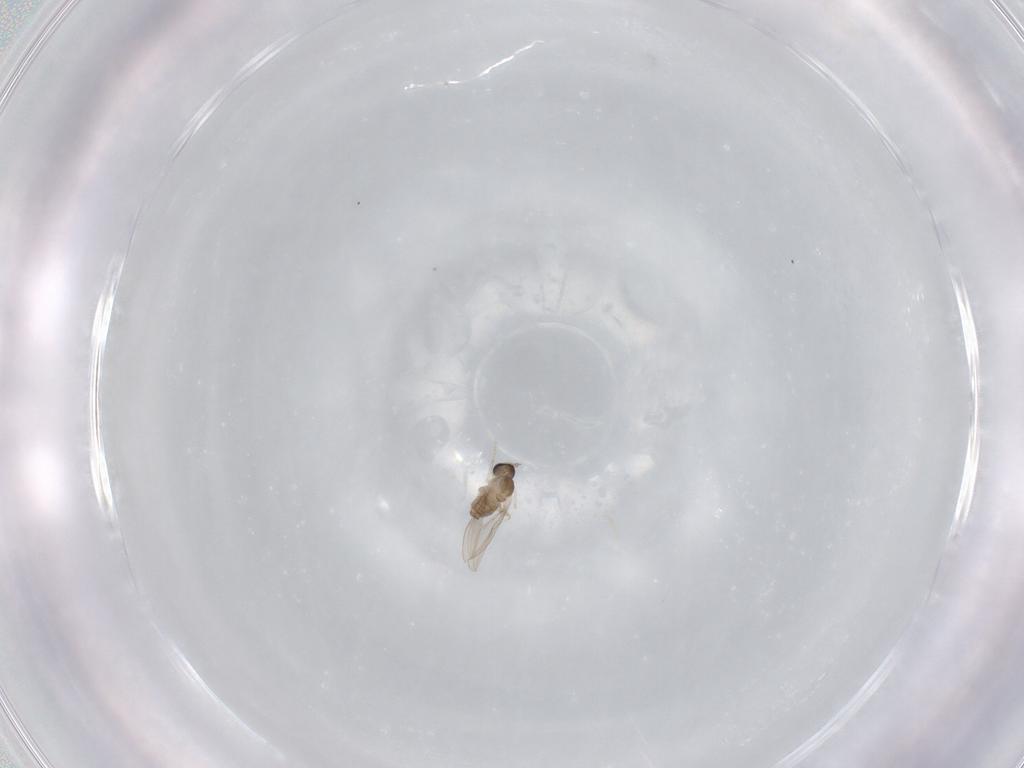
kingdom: Animalia
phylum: Arthropoda
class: Insecta
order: Diptera
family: Cecidomyiidae
